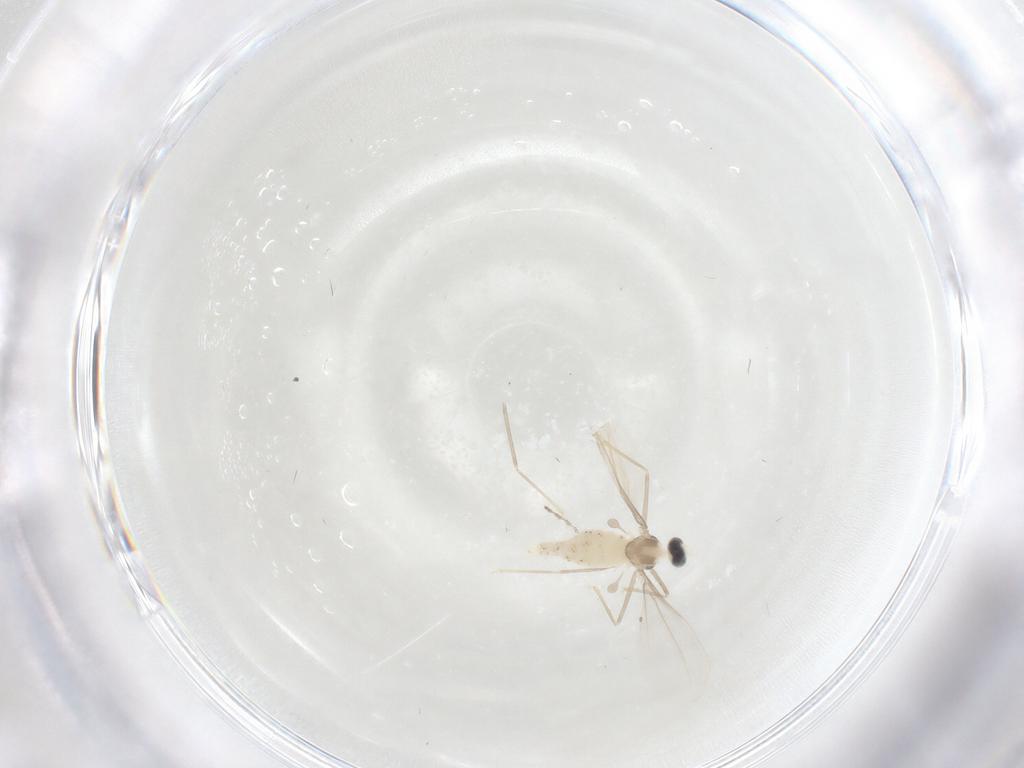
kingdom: Animalia
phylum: Arthropoda
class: Insecta
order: Diptera
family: Cecidomyiidae
